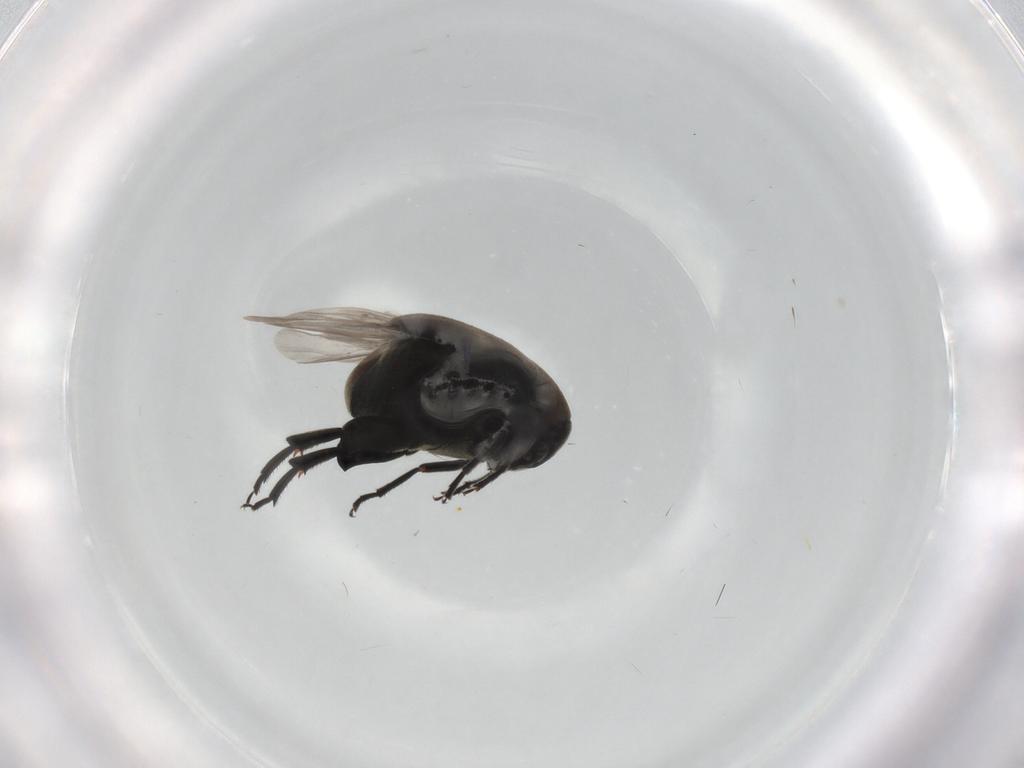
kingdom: Animalia
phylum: Arthropoda
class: Insecta
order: Coleoptera
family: Chrysomelidae
